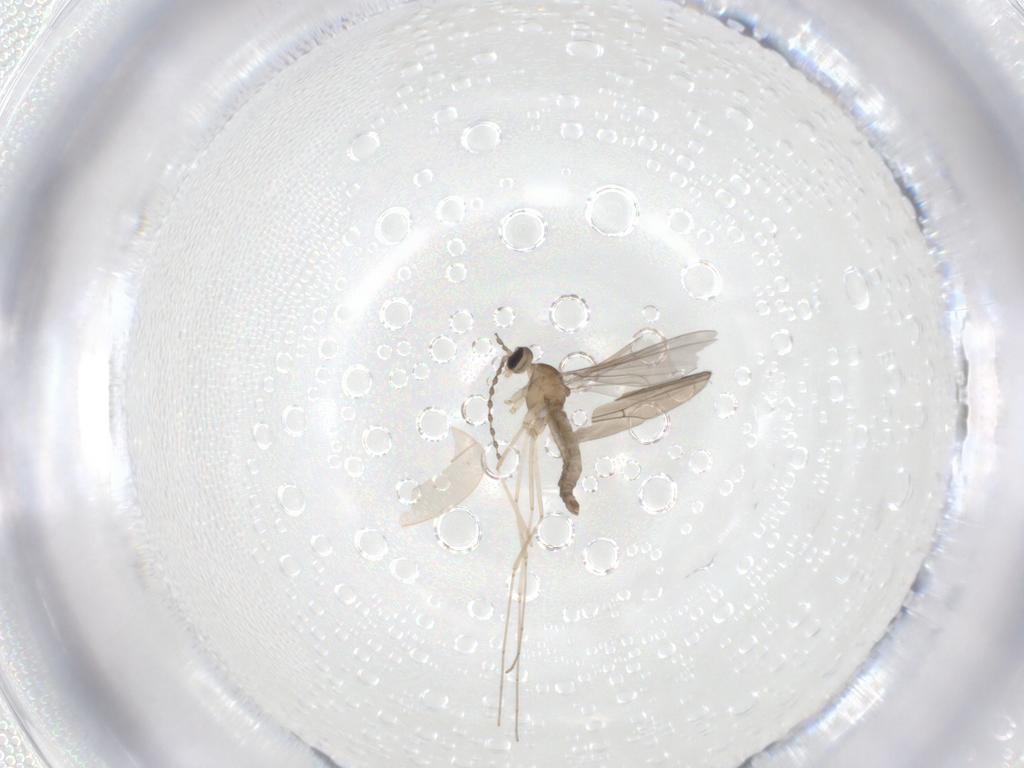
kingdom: Animalia
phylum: Arthropoda
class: Insecta
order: Diptera
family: Drosophilidae
